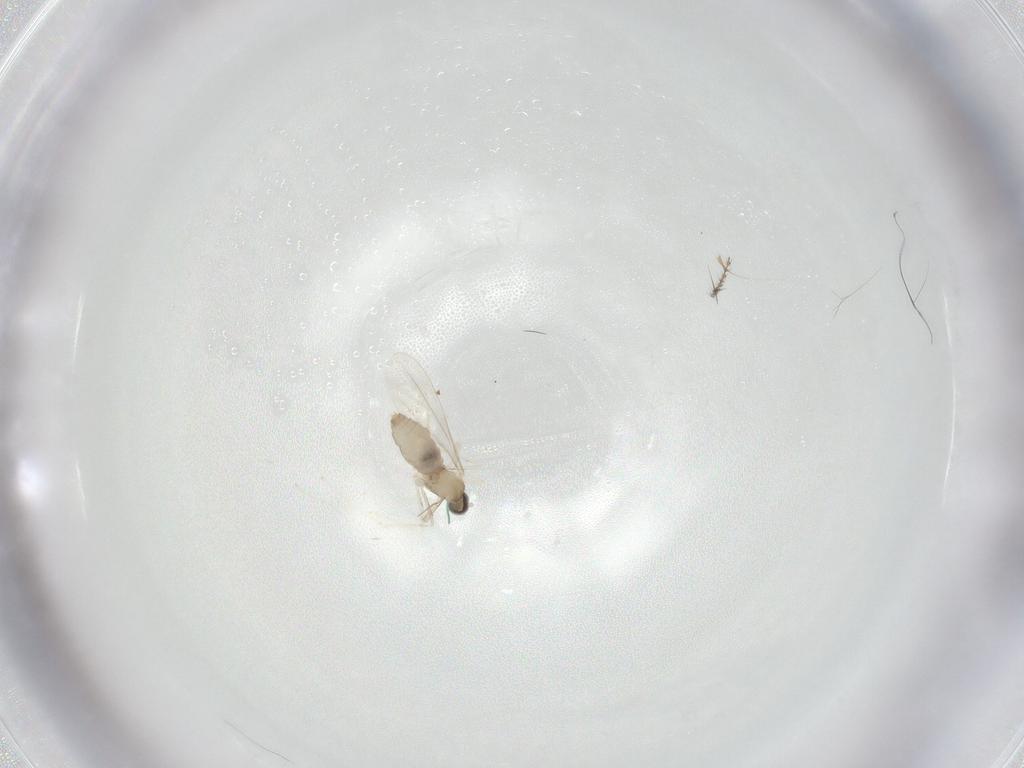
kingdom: Animalia
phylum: Arthropoda
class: Insecta
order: Diptera
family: Cecidomyiidae
